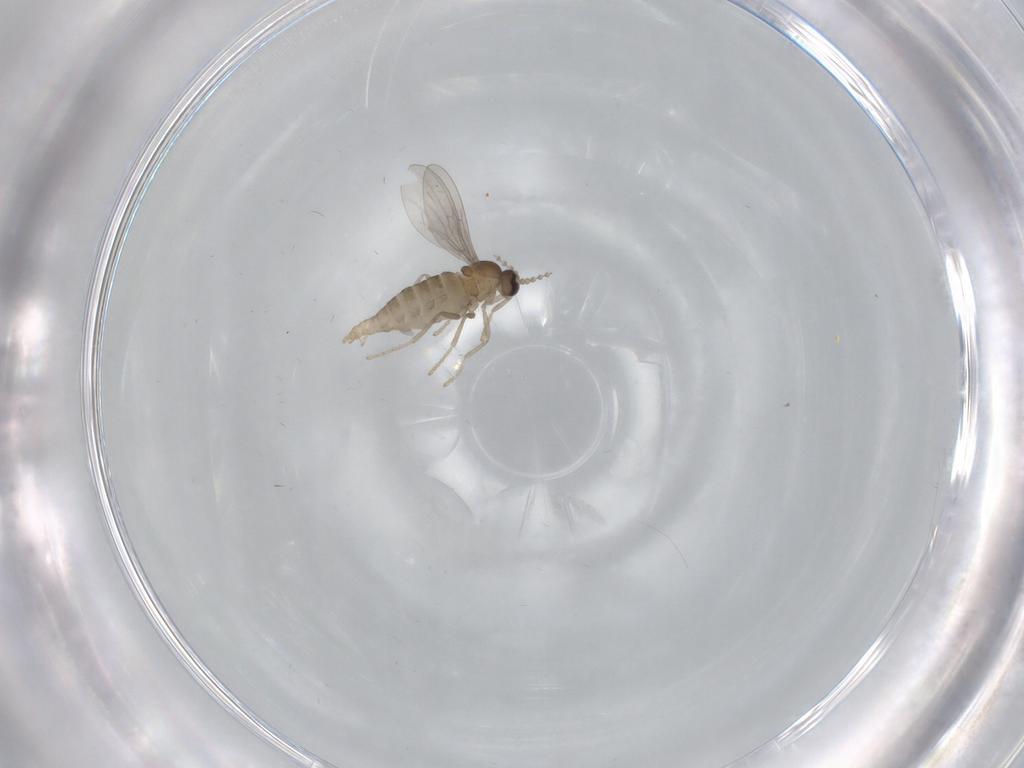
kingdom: Animalia
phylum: Arthropoda
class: Insecta
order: Diptera
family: Cecidomyiidae
